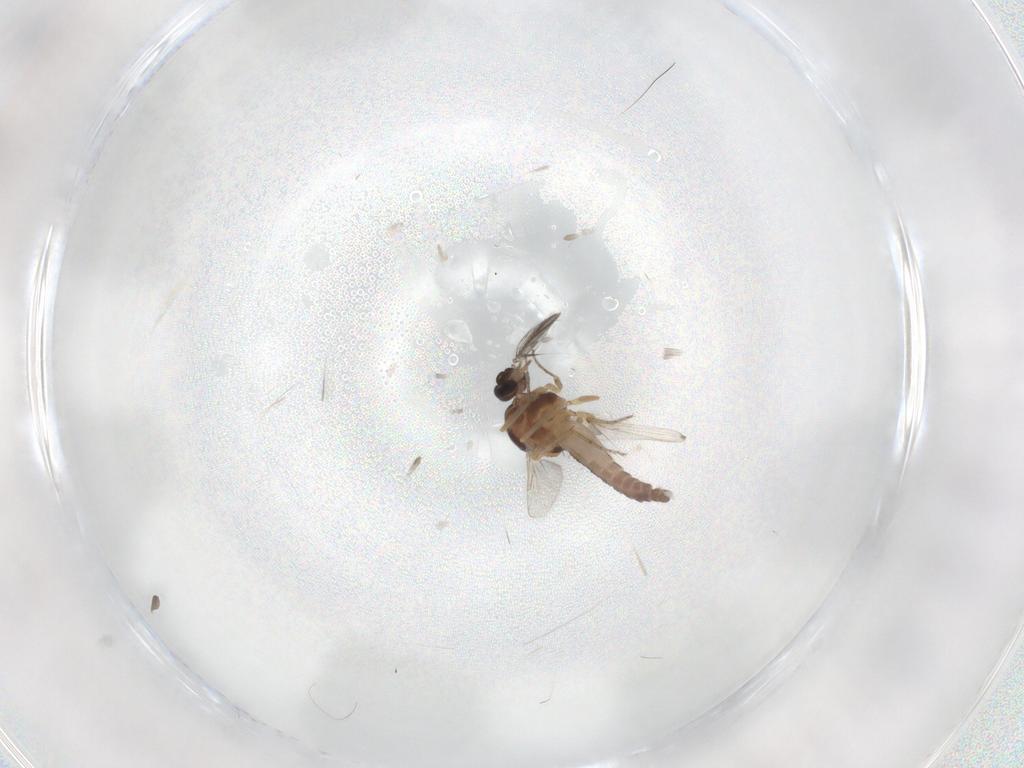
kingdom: Animalia
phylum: Arthropoda
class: Insecta
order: Diptera
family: Ceratopogonidae
